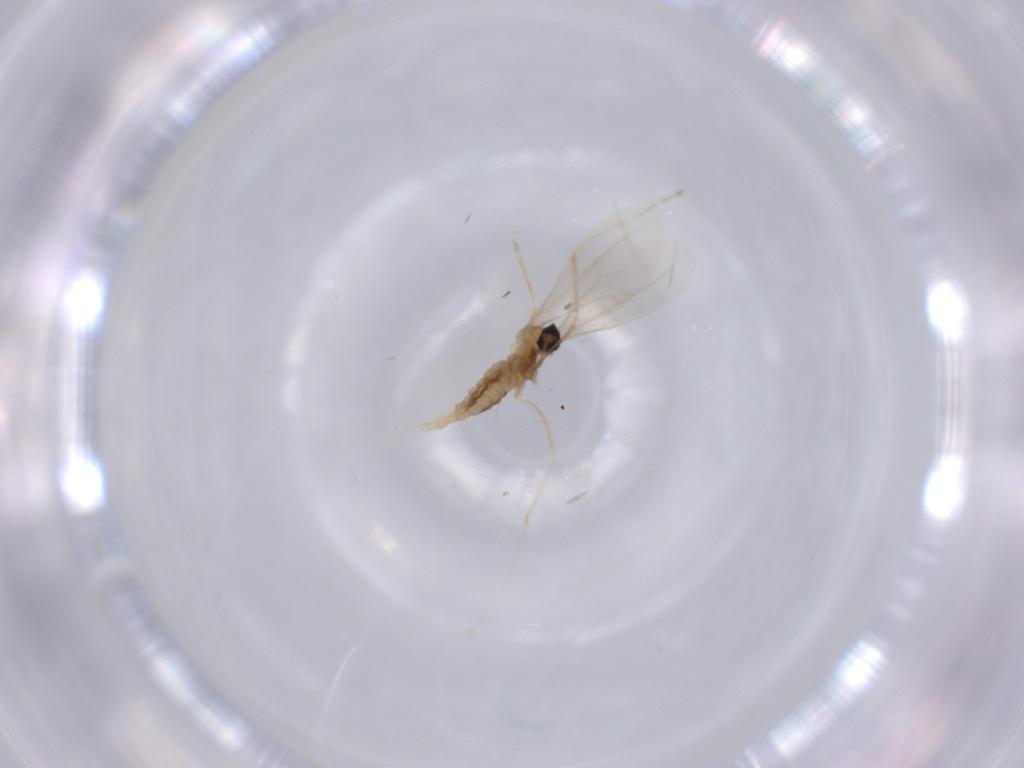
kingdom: Animalia
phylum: Arthropoda
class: Insecta
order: Diptera
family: Cecidomyiidae
